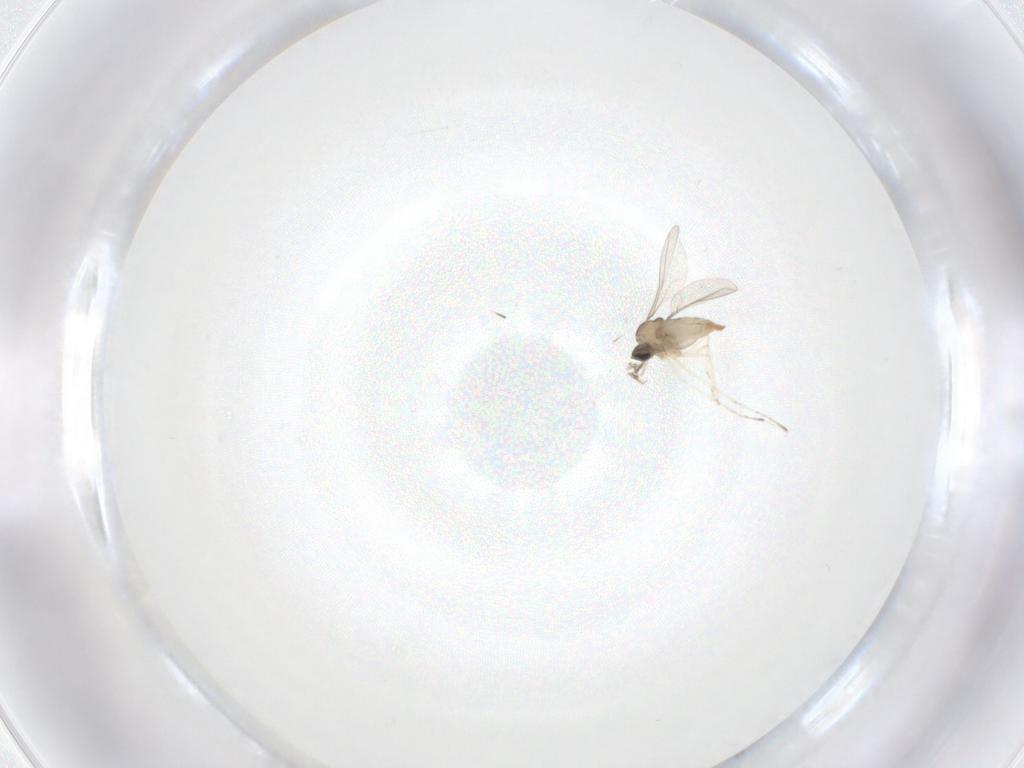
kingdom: Animalia
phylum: Arthropoda
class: Insecta
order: Diptera
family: Cecidomyiidae
